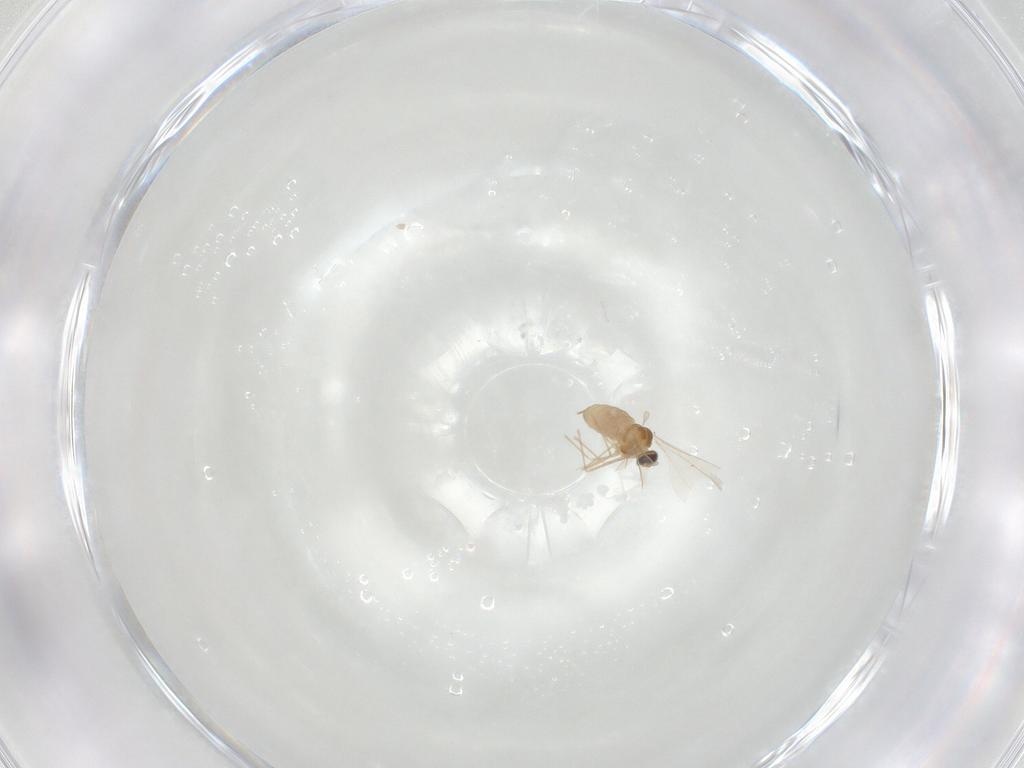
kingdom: Animalia
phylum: Arthropoda
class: Insecta
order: Diptera
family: Cecidomyiidae
